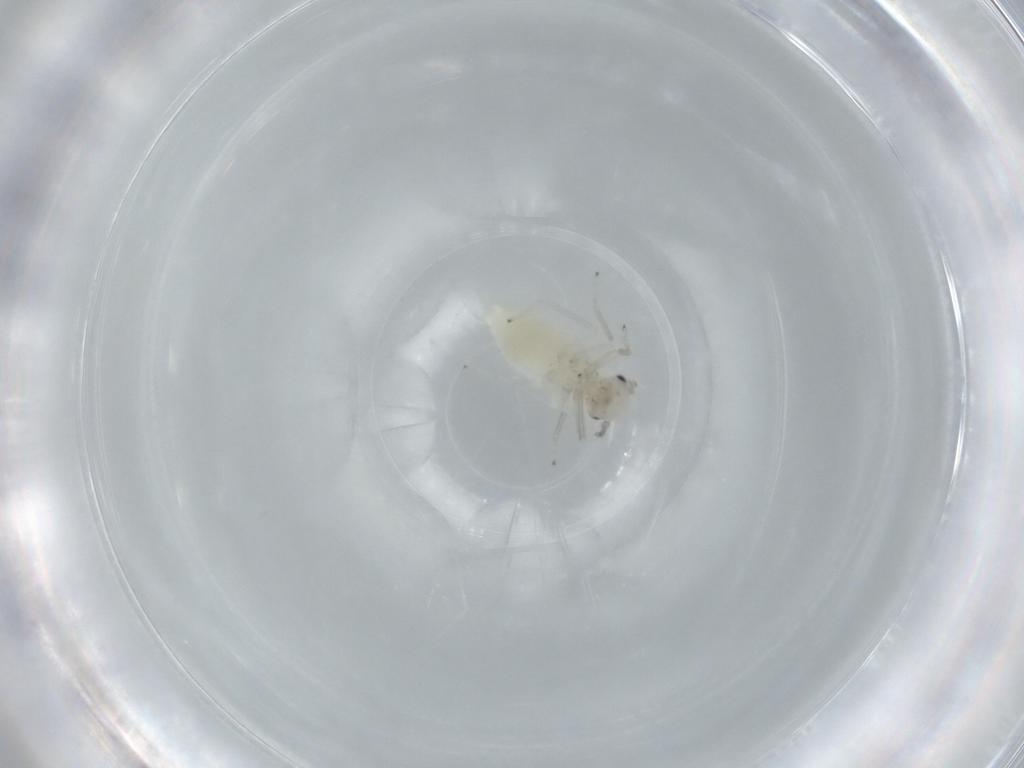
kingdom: Animalia
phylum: Arthropoda
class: Insecta
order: Psocodea
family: Caeciliusidae
